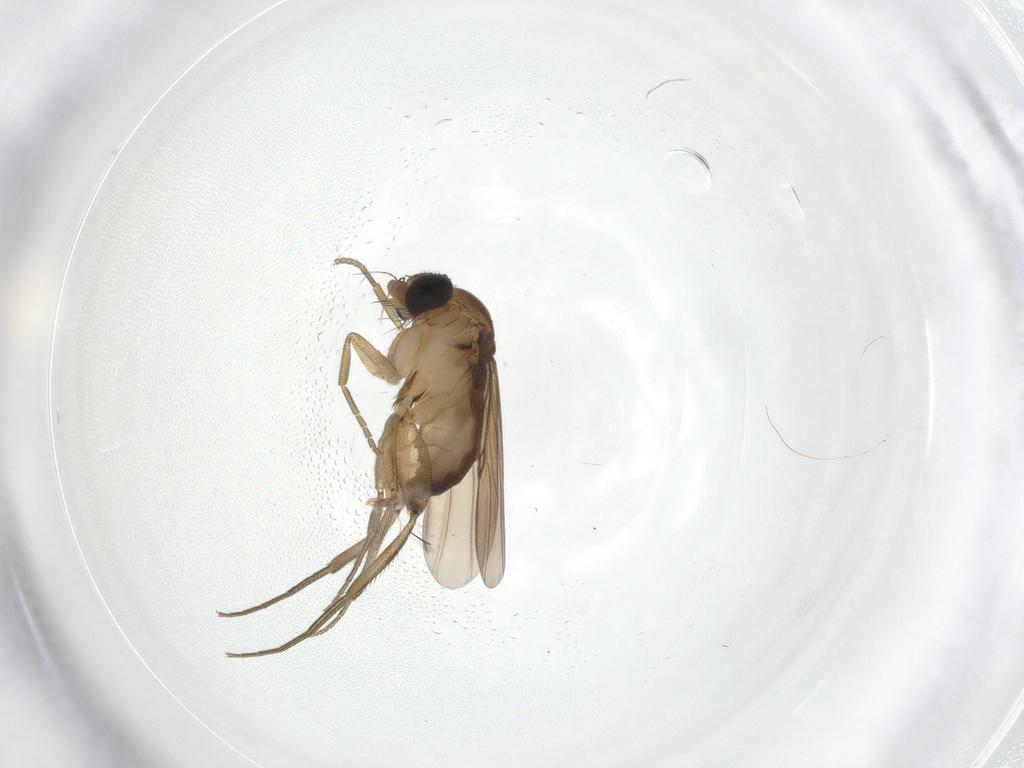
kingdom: Animalia
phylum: Arthropoda
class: Insecta
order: Diptera
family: Phoridae
